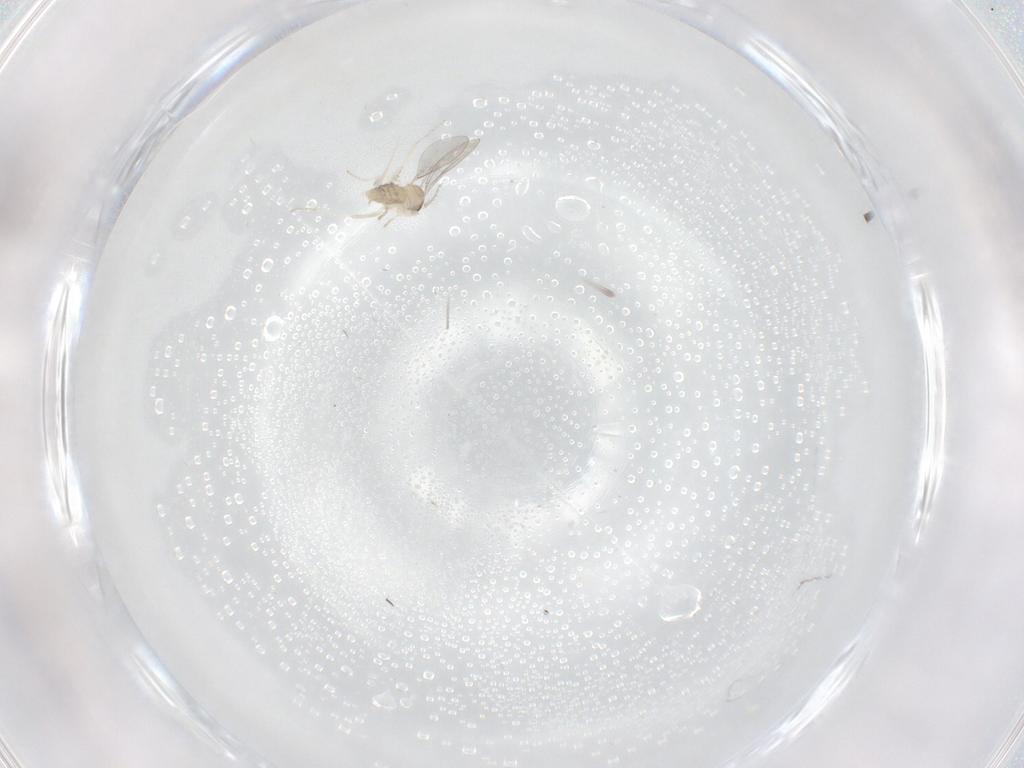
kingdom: Animalia
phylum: Arthropoda
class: Insecta
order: Diptera
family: Cecidomyiidae
